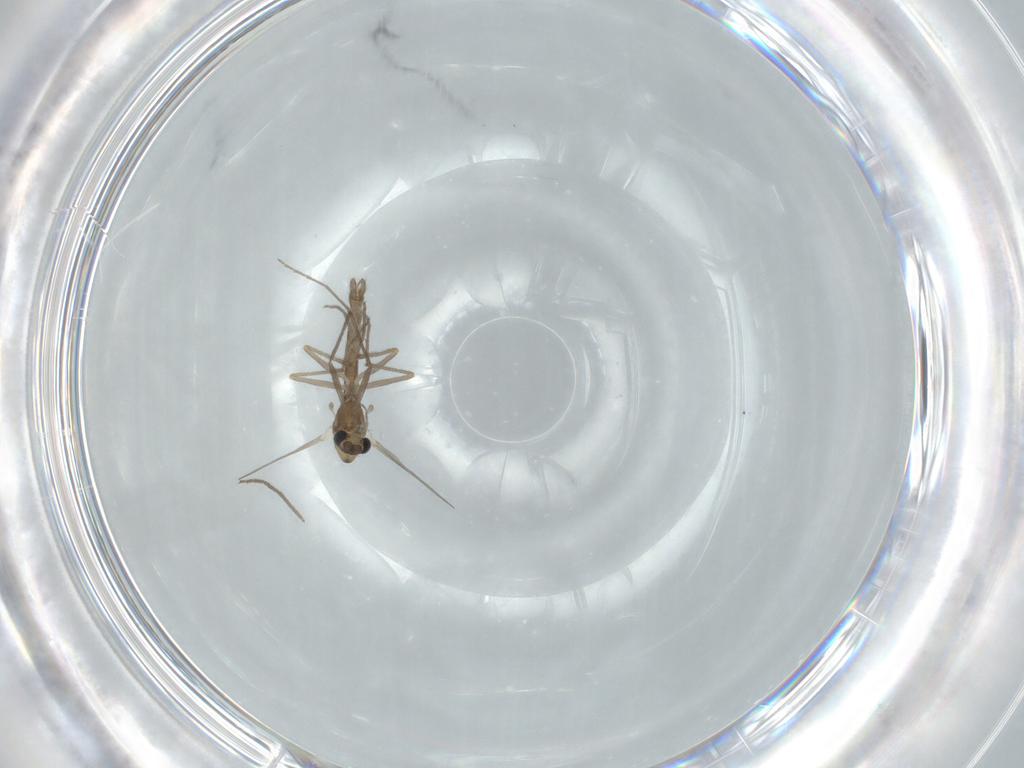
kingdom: Animalia
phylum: Arthropoda
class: Insecta
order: Diptera
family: Chironomidae
